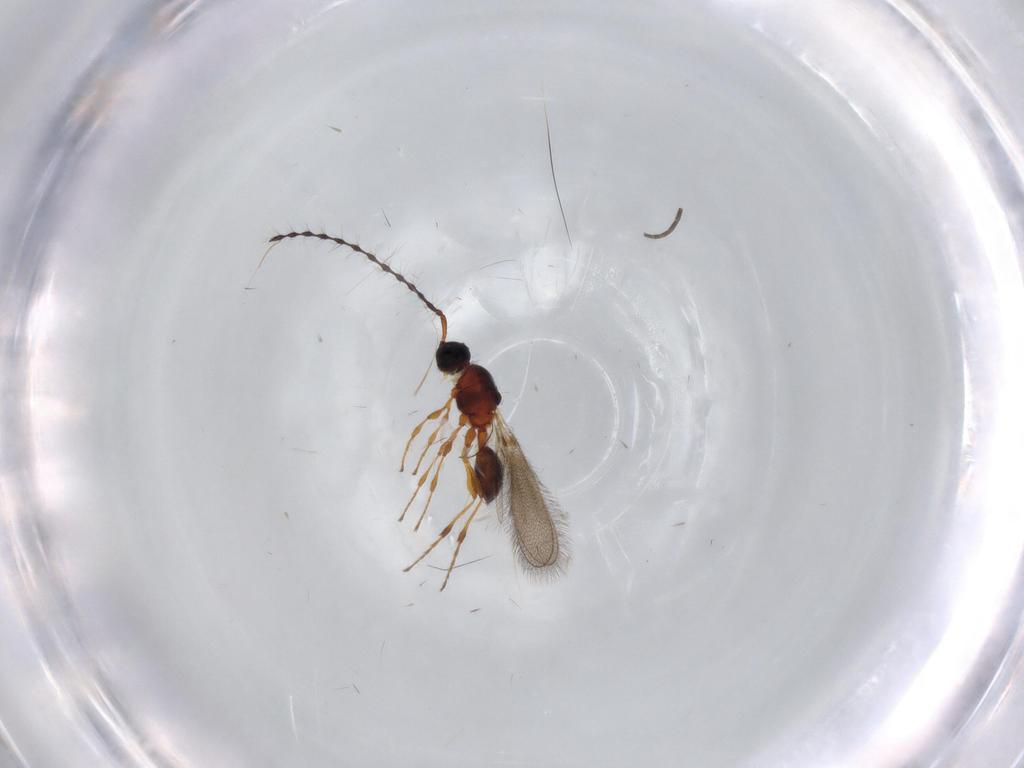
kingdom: Animalia
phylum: Arthropoda
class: Insecta
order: Hymenoptera
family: Diapriidae
